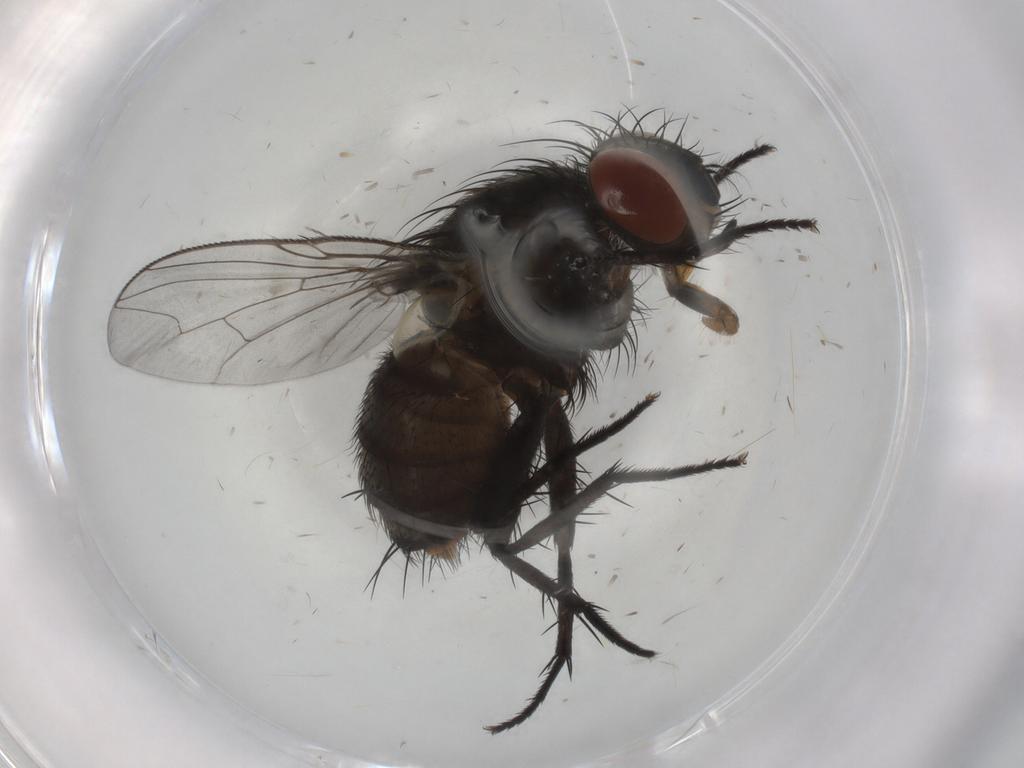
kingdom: Animalia
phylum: Arthropoda
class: Insecta
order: Diptera
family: Sarcophagidae
